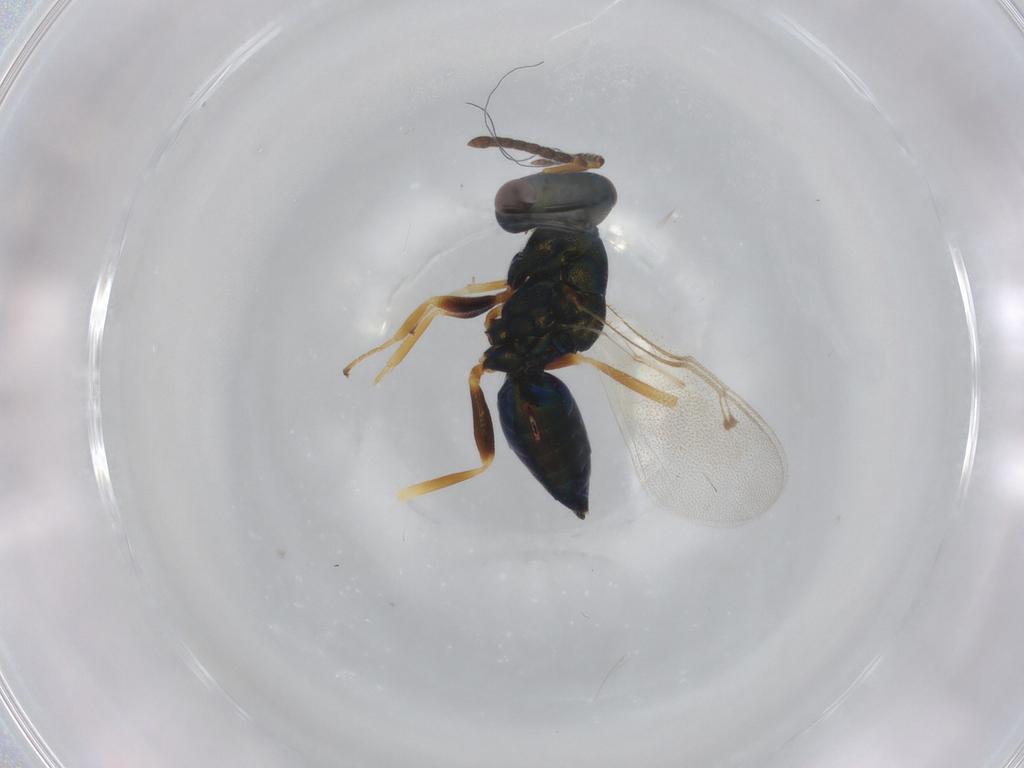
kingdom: Animalia
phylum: Arthropoda
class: Insecta
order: Hymenoptera
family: Pteromalidae
